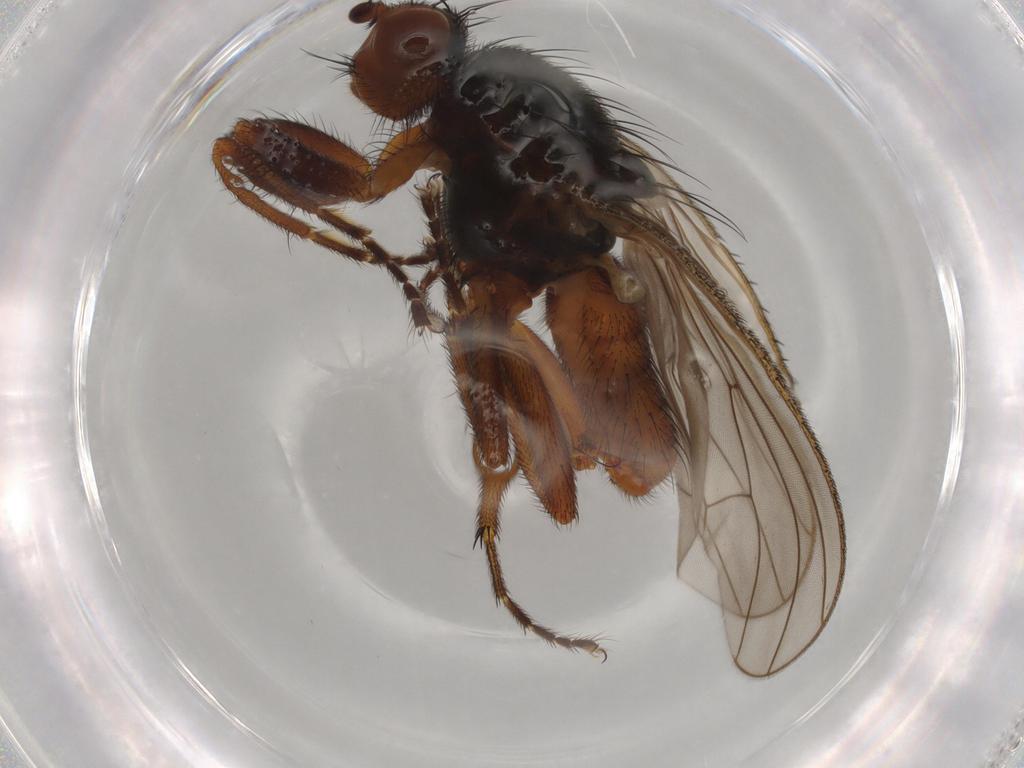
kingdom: Animalia
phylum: Arthropoda
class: Insecta
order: Diptera
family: Heleomyzidae
